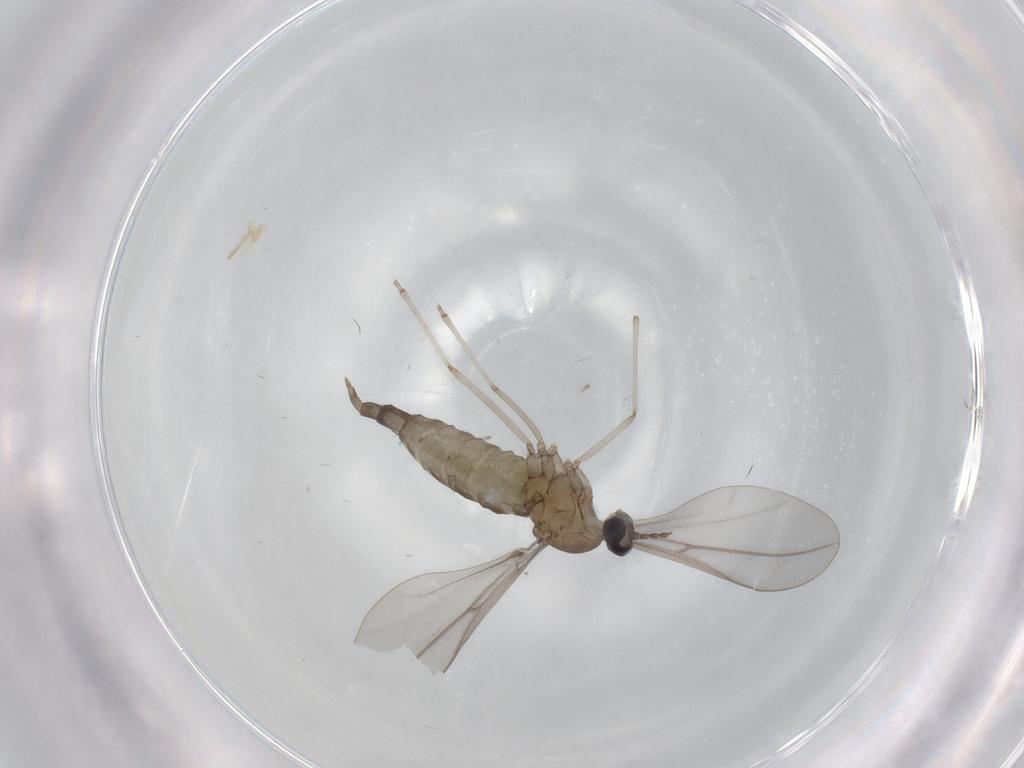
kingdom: Animalia
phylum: Arthropoda
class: Insecta
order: Diptera
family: Cecidomyiidae
